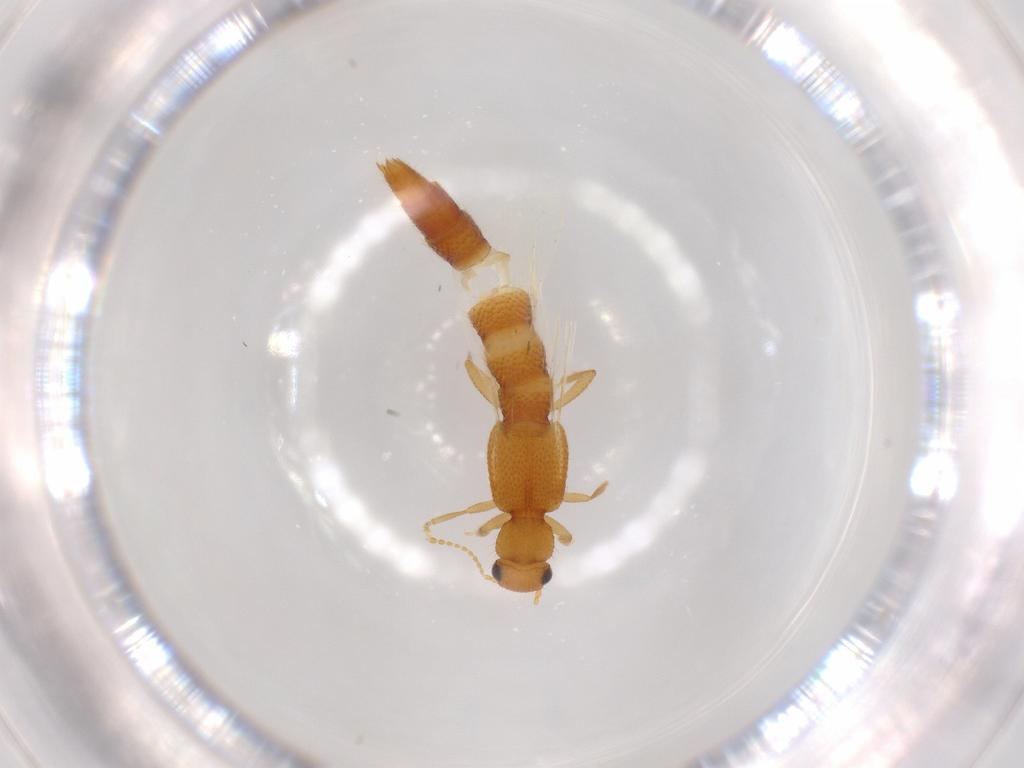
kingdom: Animalia
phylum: Arthropoda
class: Insecta
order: Coleoptera
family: Staphylinidae
